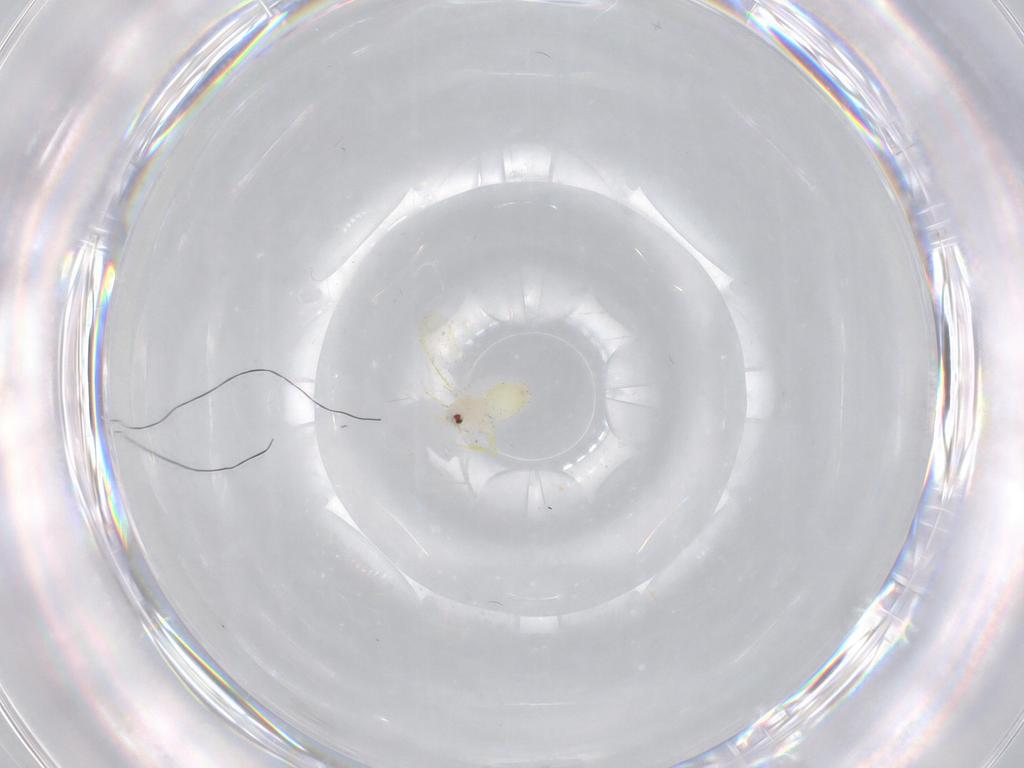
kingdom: Animalia
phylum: Arthropoda
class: Insecta
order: Hemiptera
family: Aleyrodidae
